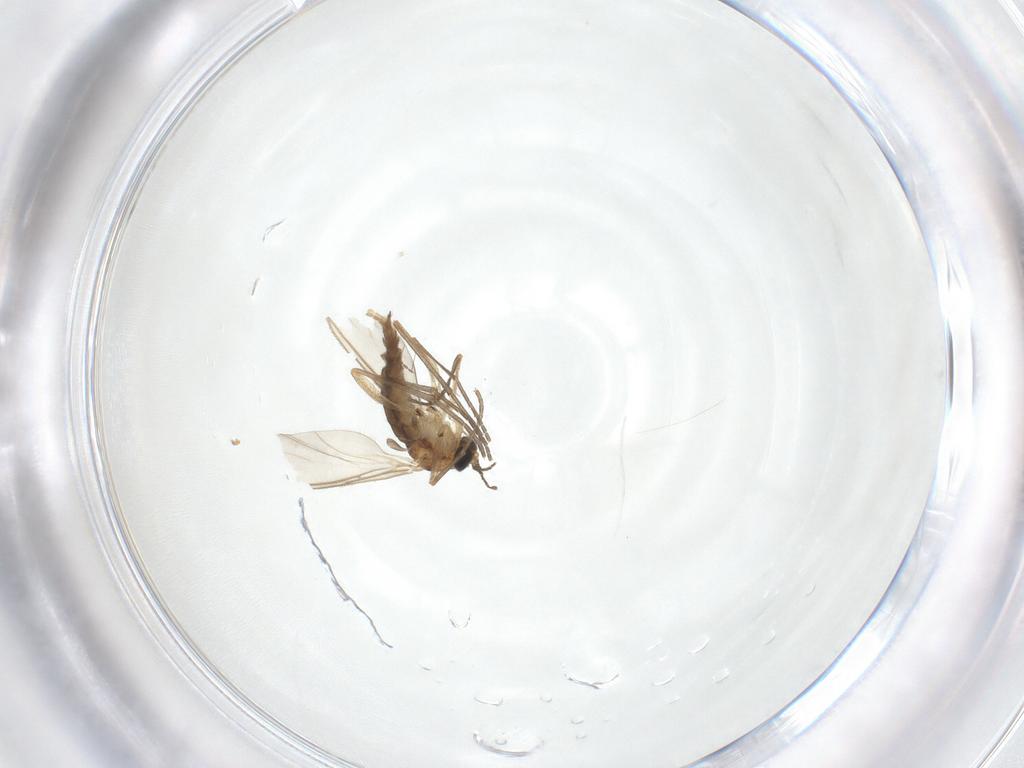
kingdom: Animalia
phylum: Arthropoda
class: Insecta
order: Diptera
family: Sciaridae
